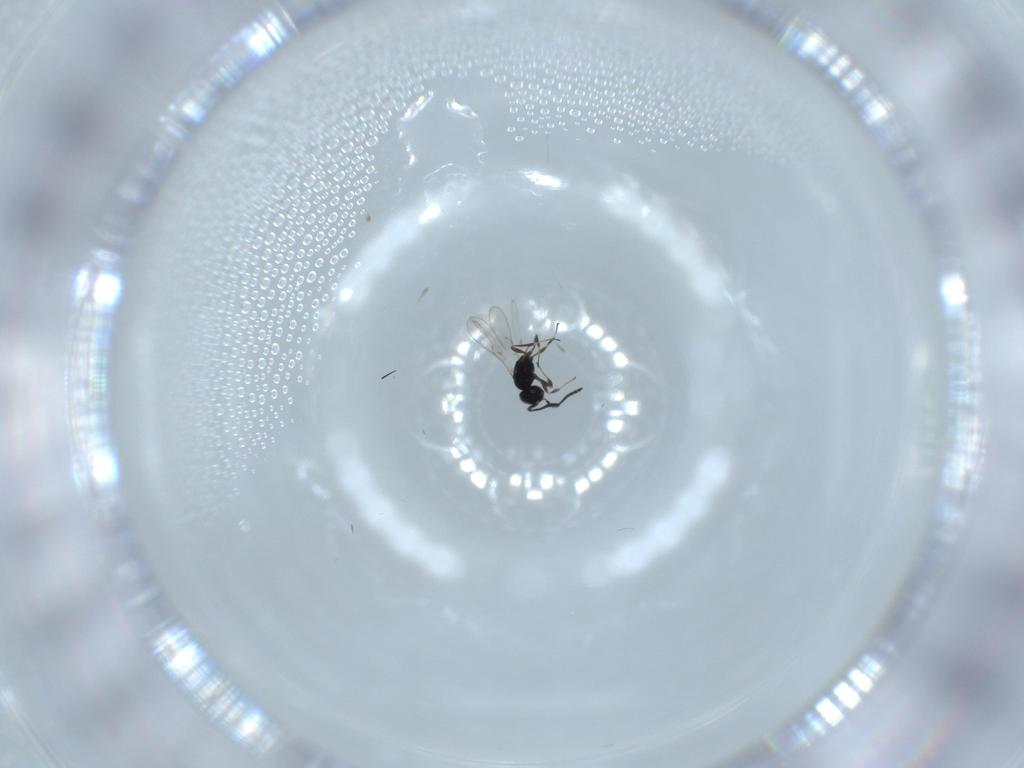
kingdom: Animalia
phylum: Arthropoda
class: Insecta
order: Hymenoptera
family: Scelionidae
